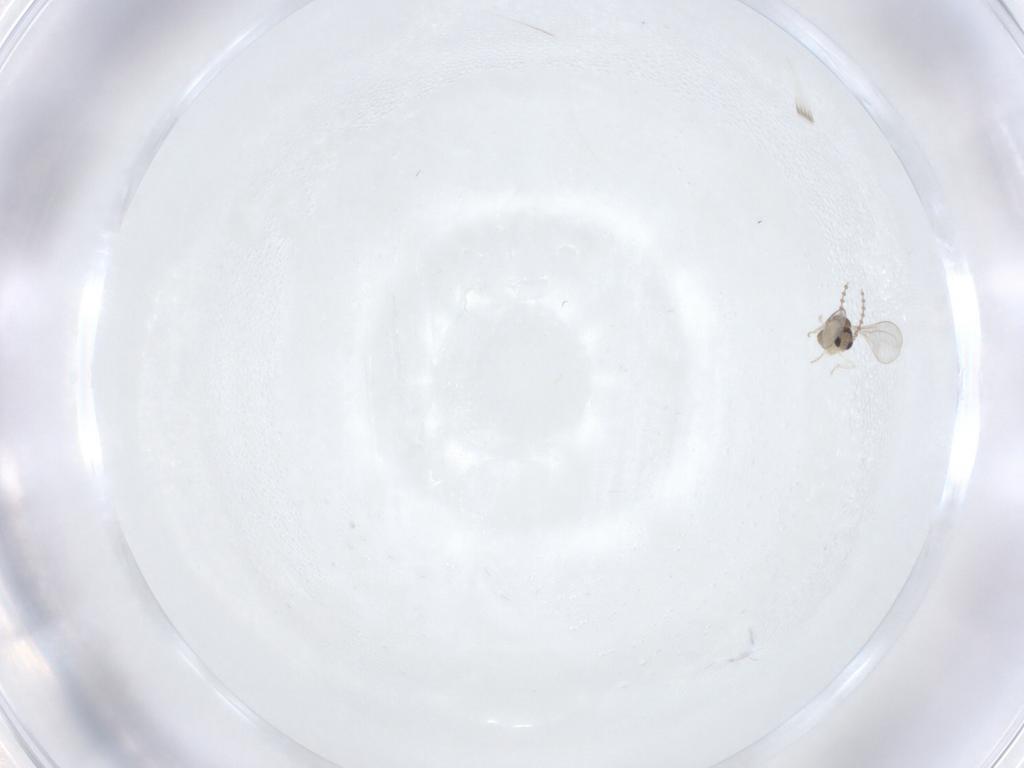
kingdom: Animalia
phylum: Arthropoda
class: Insecta
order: Diptera
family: Cecidomyiidae
